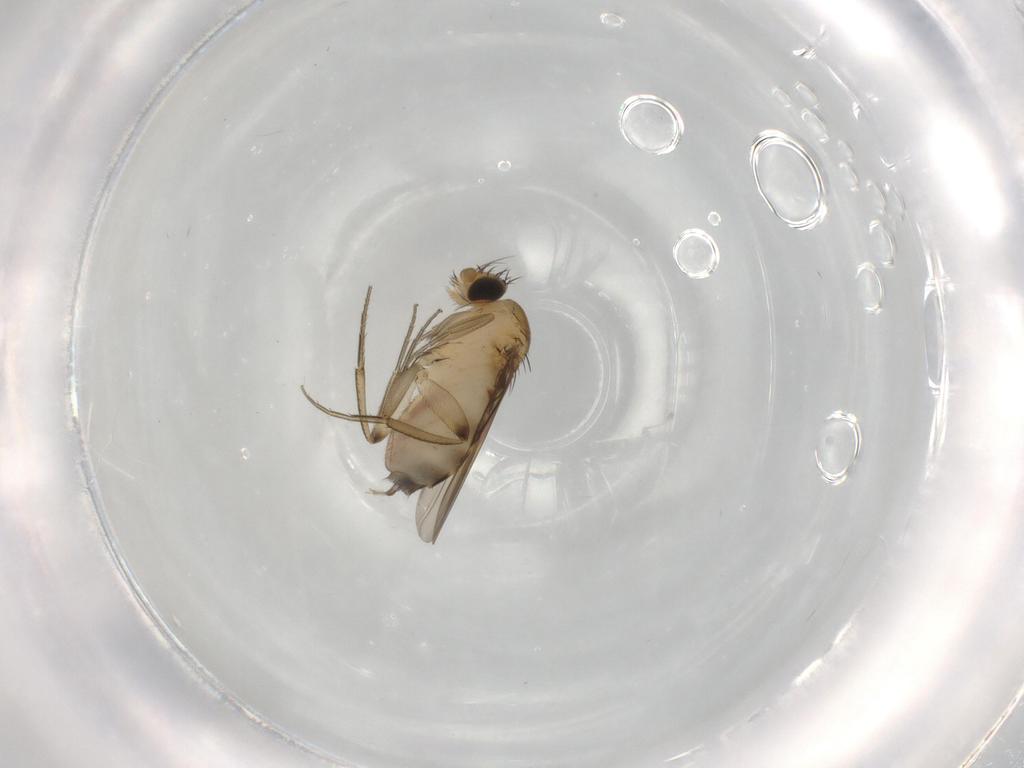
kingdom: Animalia
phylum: Arthropoda
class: Insecta
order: Diptera
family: Phoridae
